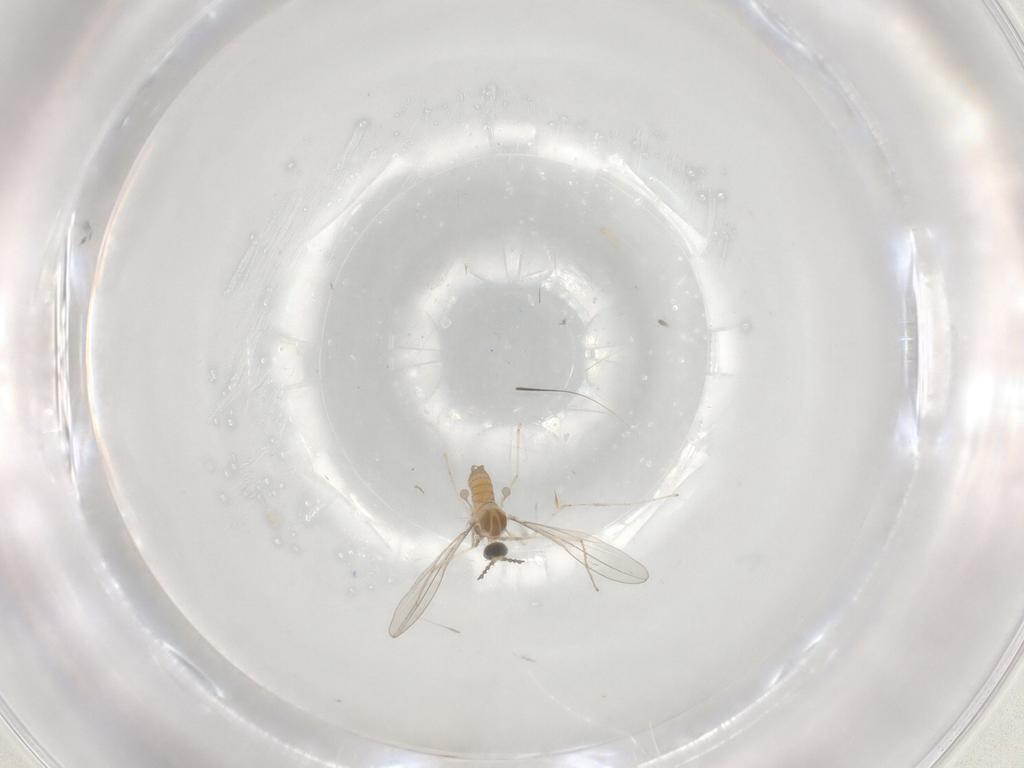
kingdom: Animalia
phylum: Arthropoda
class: Insecta
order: Diptera
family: Cecidomyiidae
